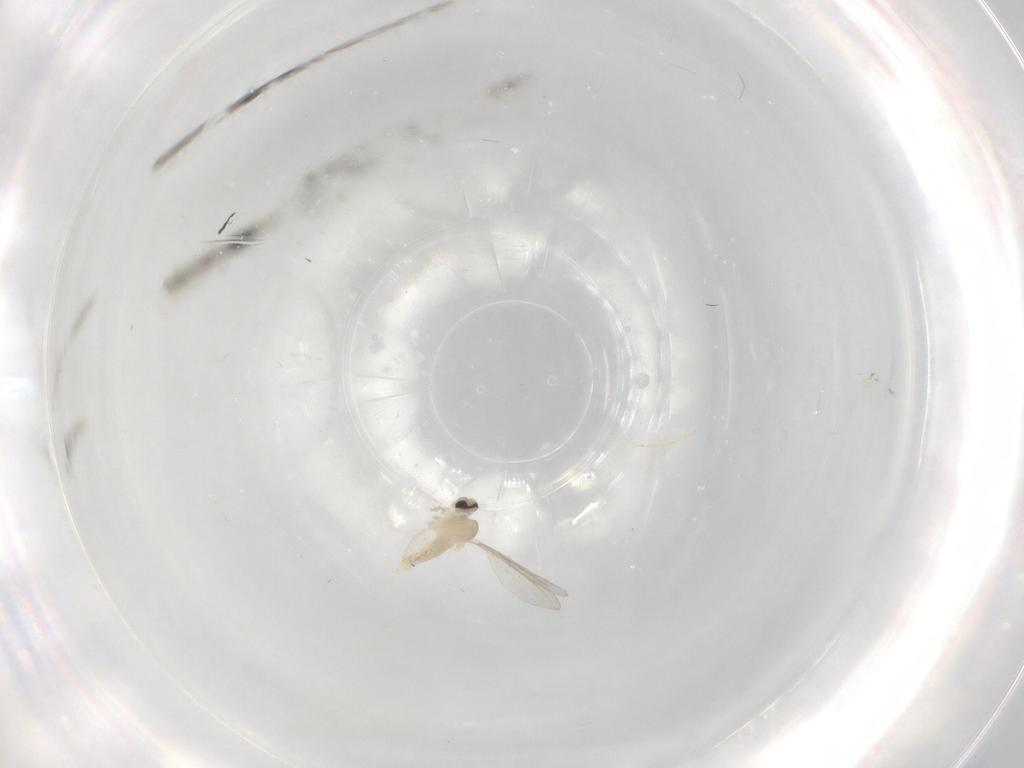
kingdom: Animalia
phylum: Arthropoda
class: Insecta
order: Diptera
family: Cecidomyiidae
